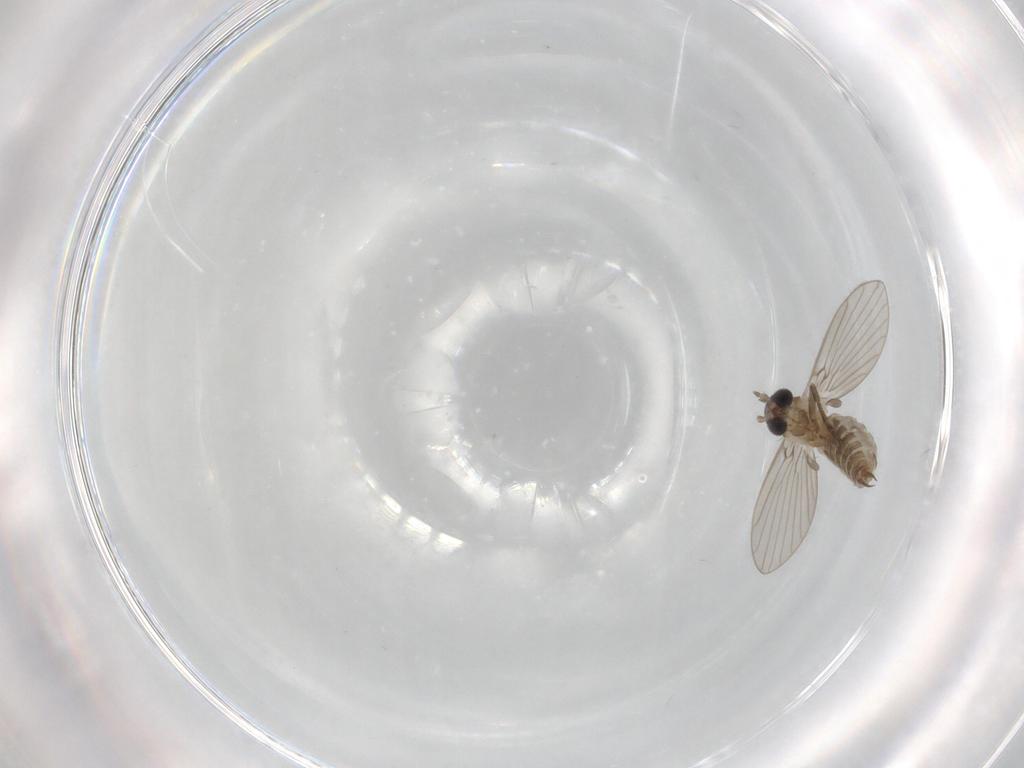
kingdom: Animalia
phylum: Arthropoda
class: Insecta
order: Diptera
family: Psychodidae
